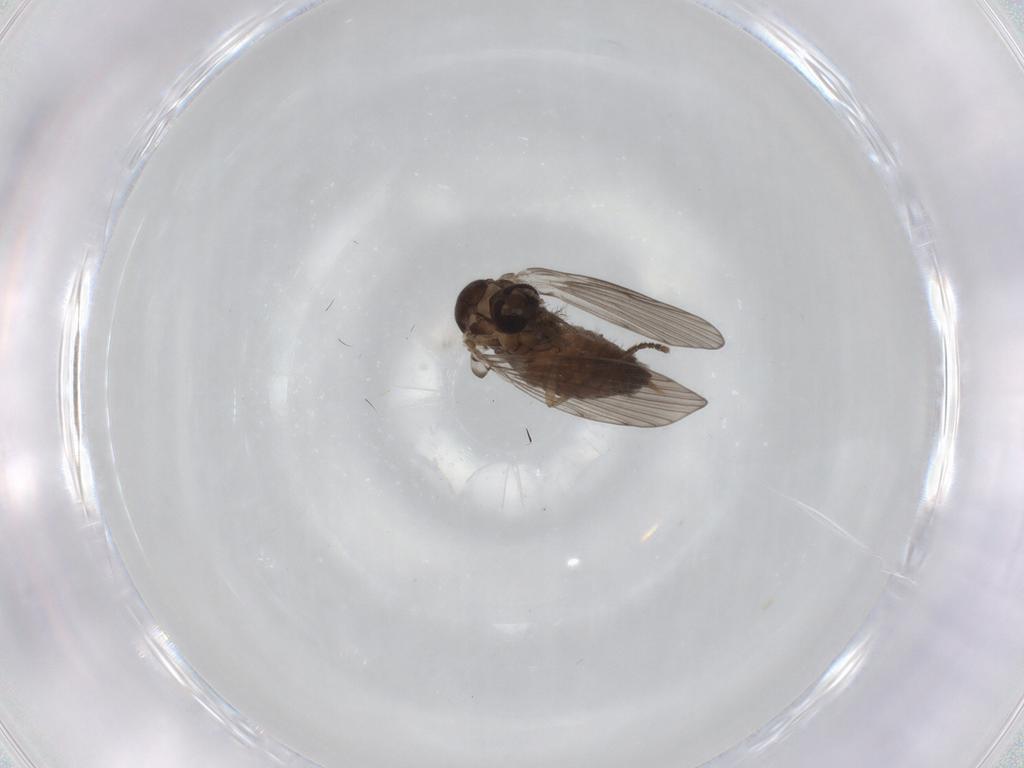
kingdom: Animalia
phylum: Arthropoda
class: Insecta
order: Diptera
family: Psychodidae
